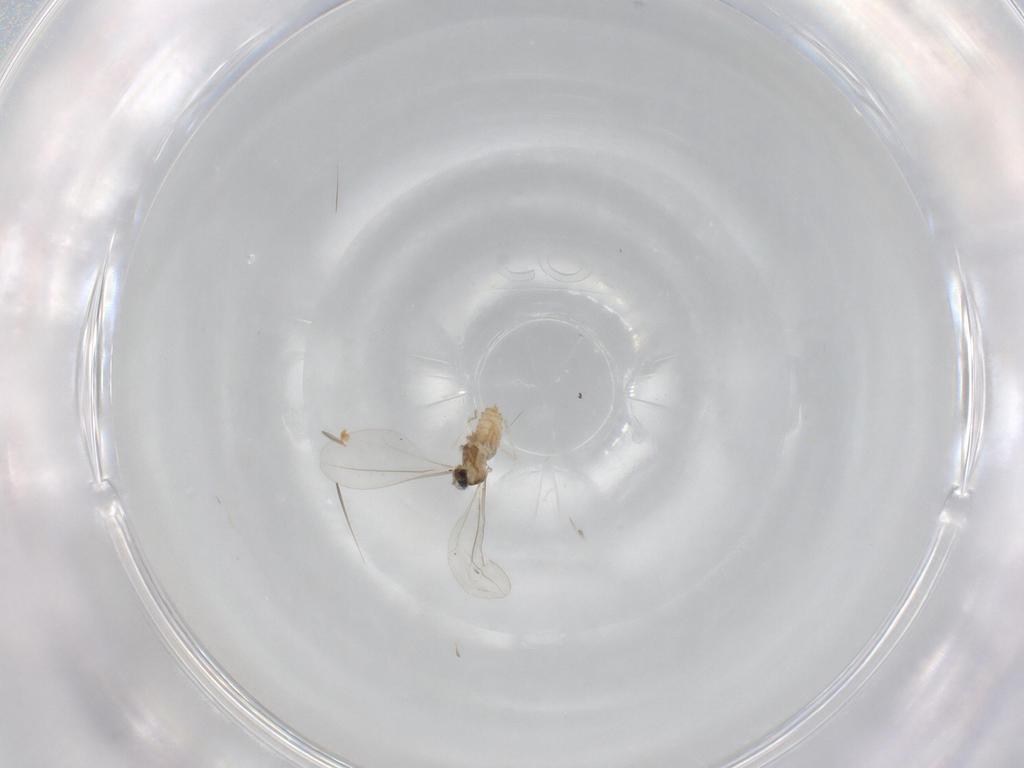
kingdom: Animalia
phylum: Arthropoda
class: Insecta
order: Diptera
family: Cecidomyiidae
